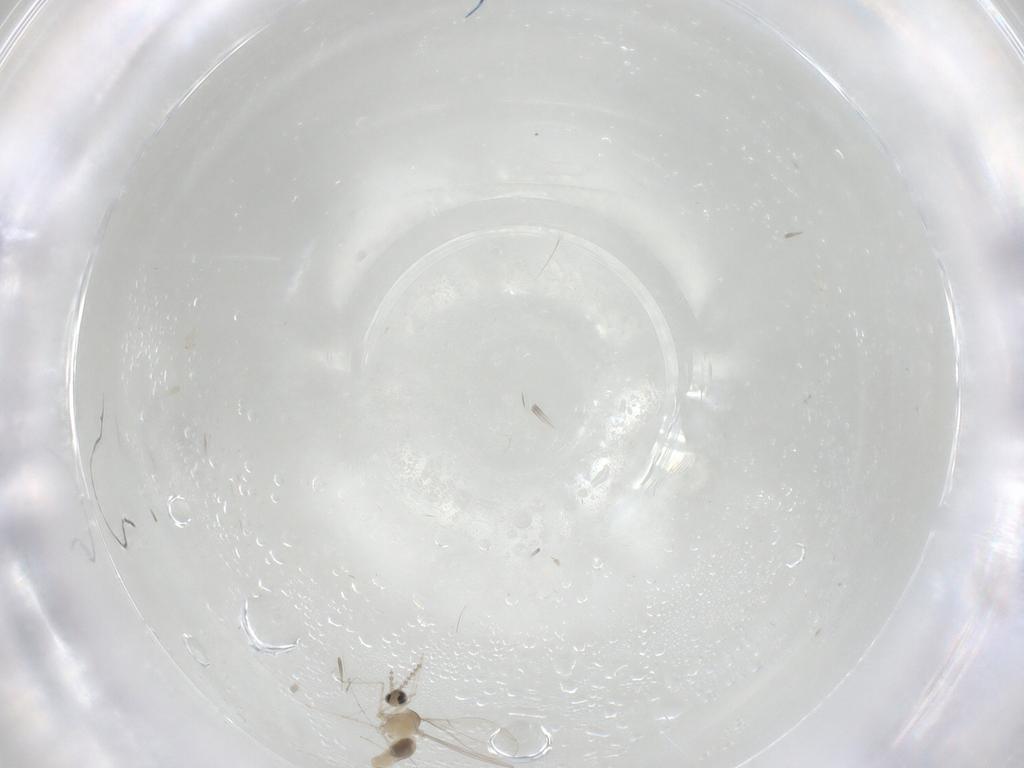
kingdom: Animalia
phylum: Arthropoda
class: Insecta
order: Diptera
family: Cecidomyiidae
